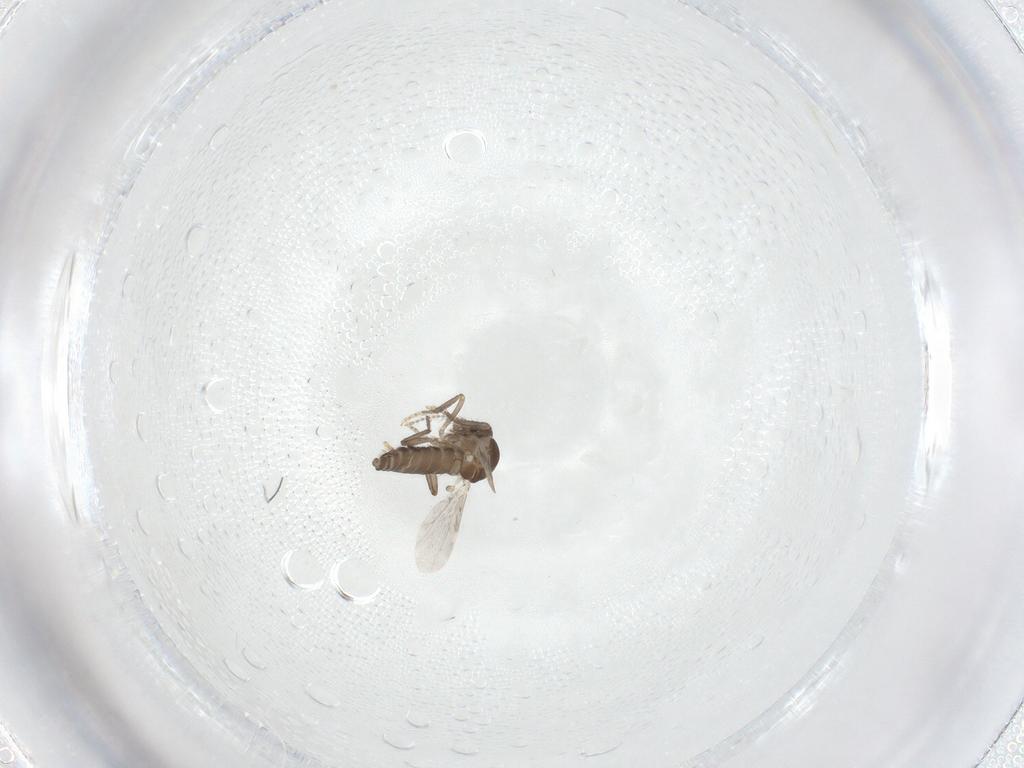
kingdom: Animalia
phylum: Arthropoda
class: Insecta
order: Diptera
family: Ceratopogonidae
